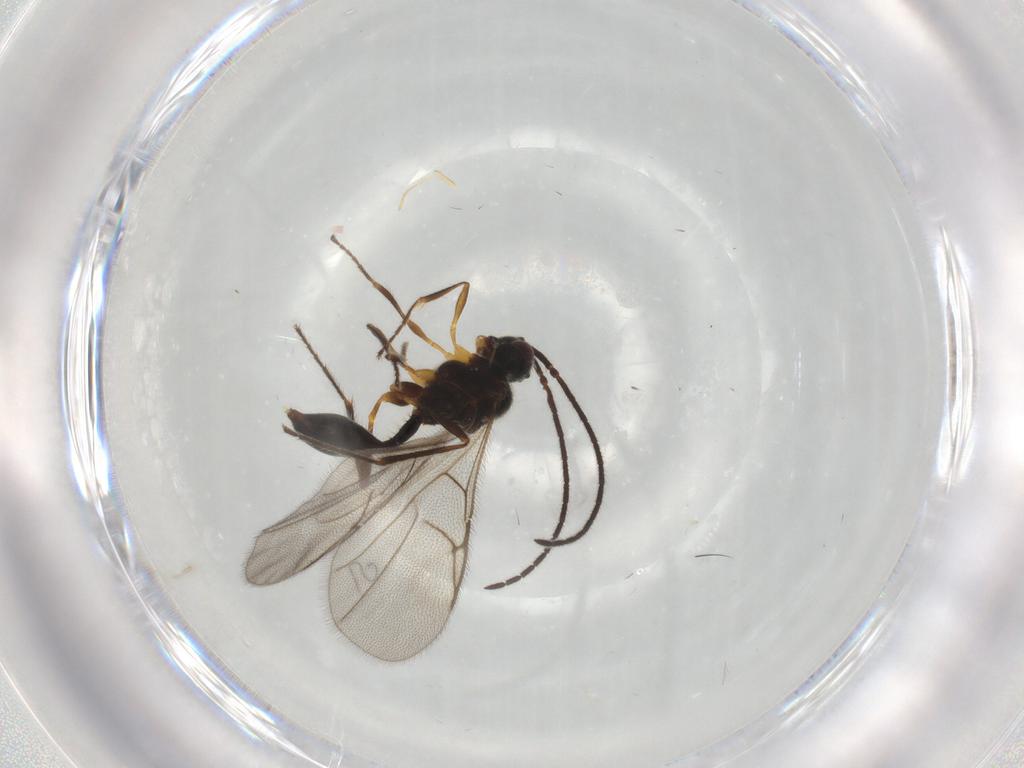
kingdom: Animalia
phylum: Arthropoda
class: Insecta
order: Hymenoptera
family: Diapriidae
